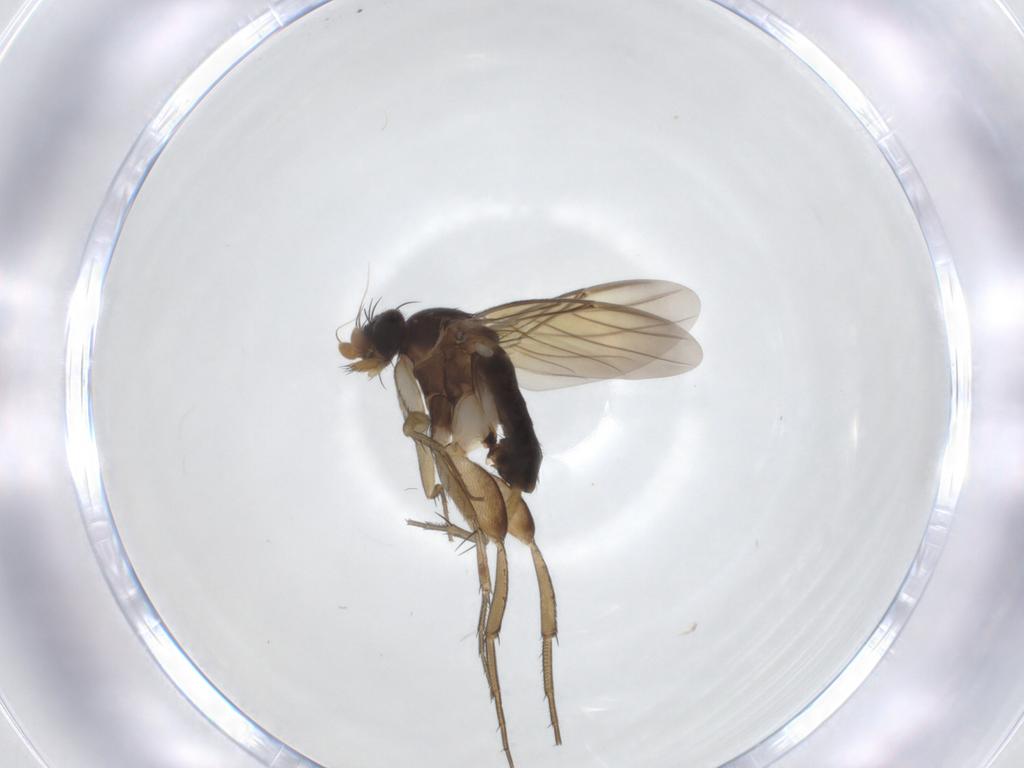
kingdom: Animalia
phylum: Arthropoda
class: Insecta
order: Diptera
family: Phoridae
